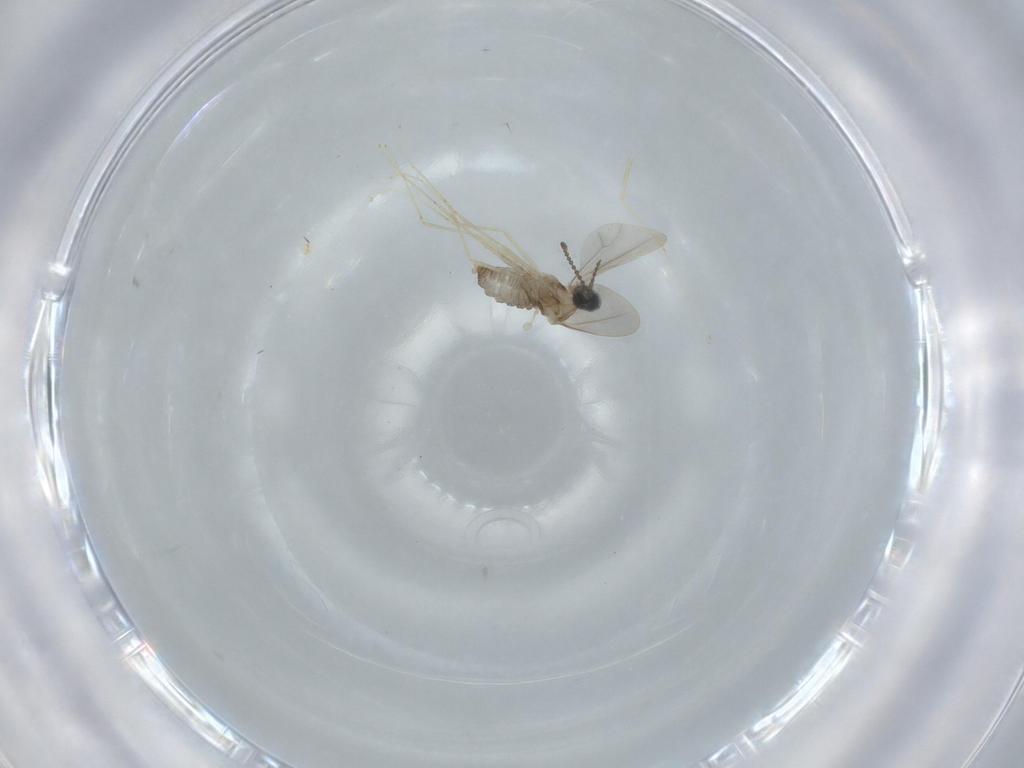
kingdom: Animalia
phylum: Arthropoda
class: Insecta
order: Diptera
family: Cecidomyiidae
